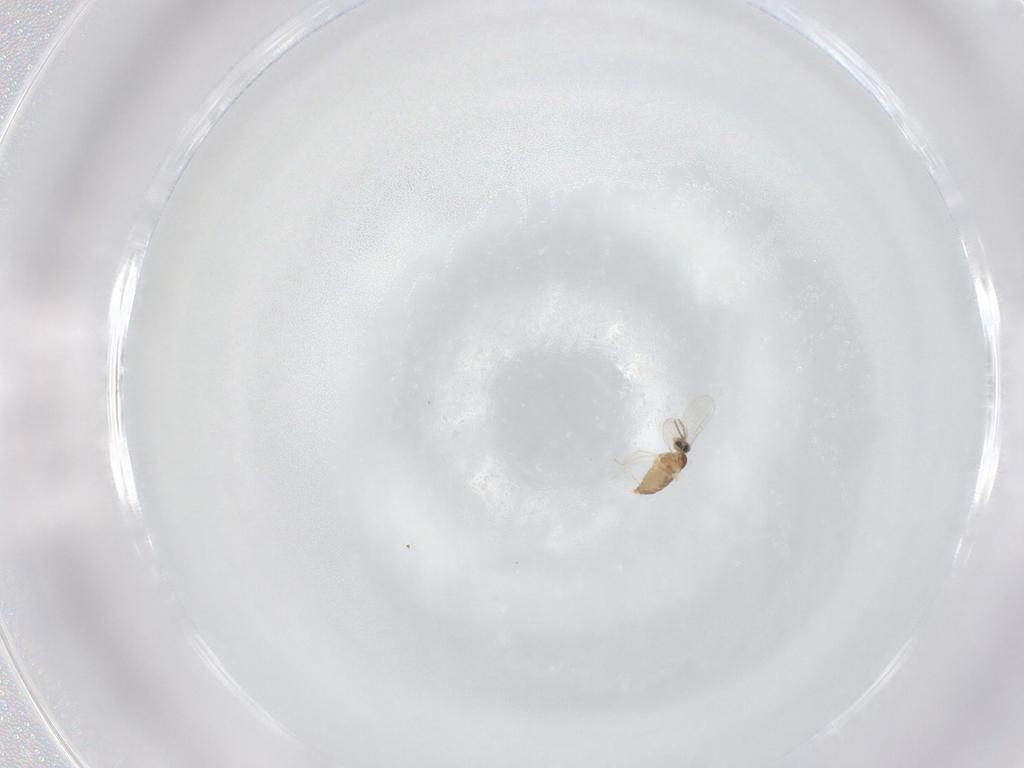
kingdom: Animalia
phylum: Arthropoda
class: Insecta
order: Diptera
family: Cecidomyiidae
